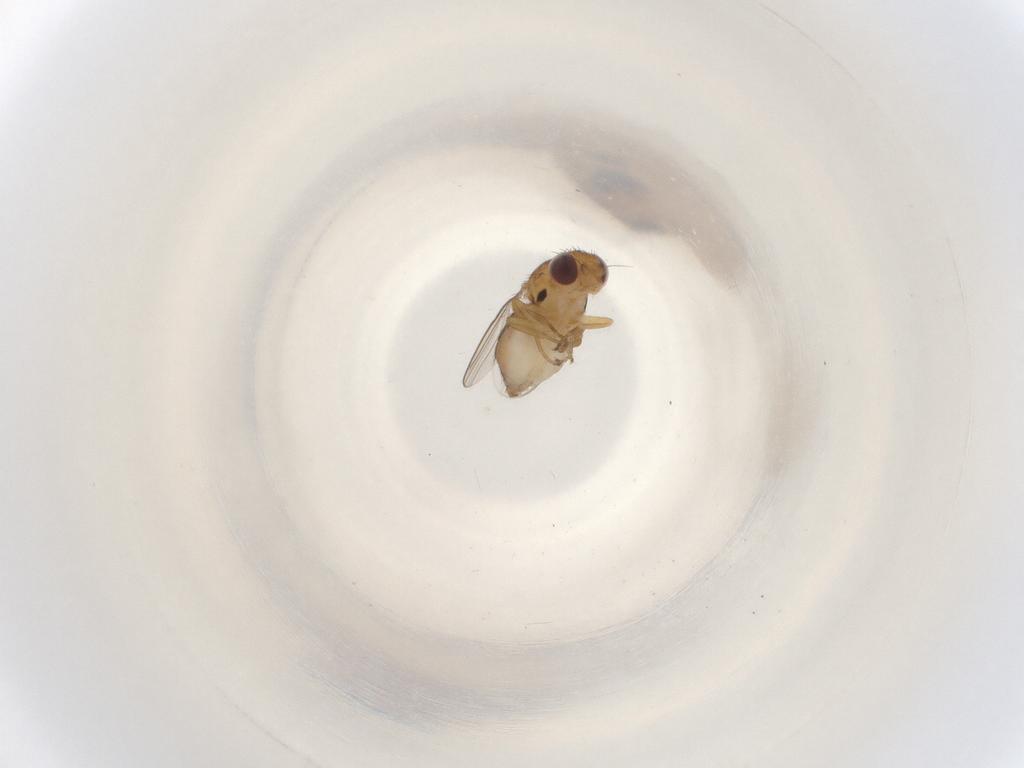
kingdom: Animalia
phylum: Arthropoda
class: Insecta
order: Diptera
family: Chloropidae
